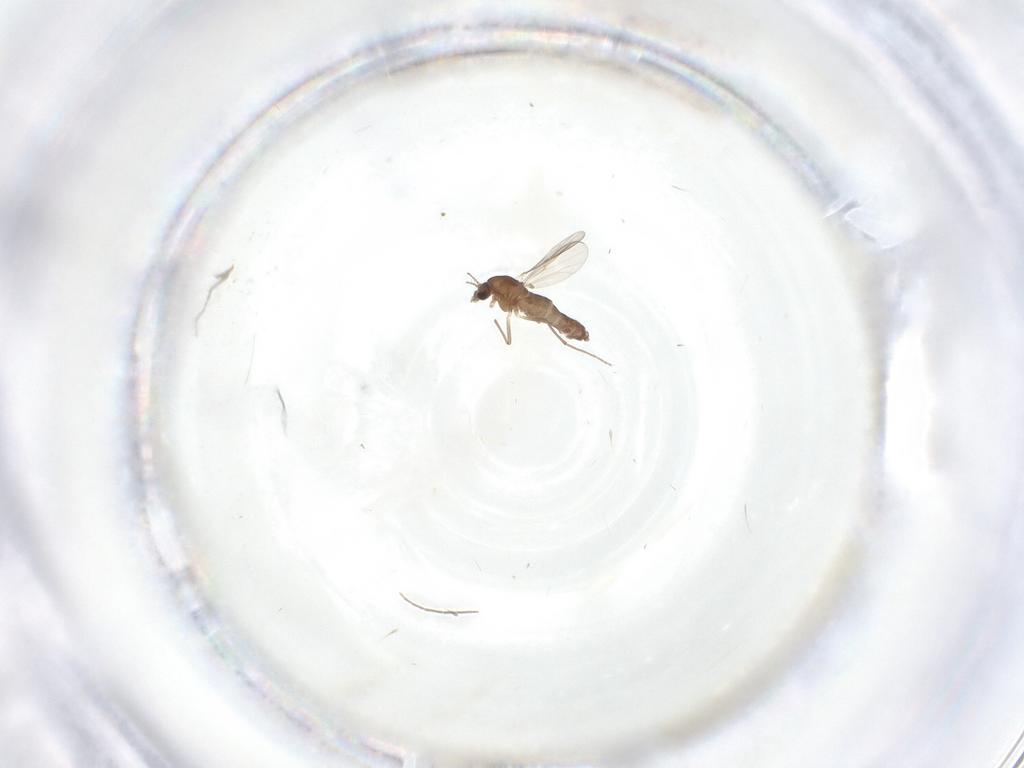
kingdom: Animalia
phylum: Arthropoda
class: Insecta
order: Diptera
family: Chironomidae
